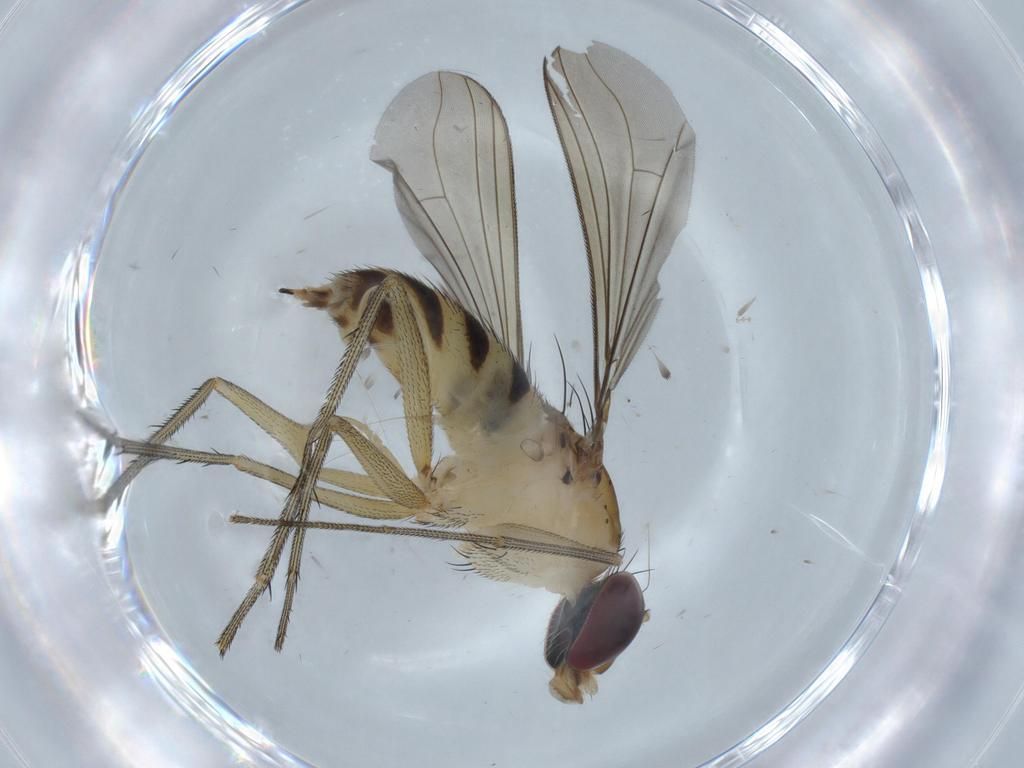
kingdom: Animalia
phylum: Arthropoda
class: Insecta
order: Diptera
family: Dolichopodidae
